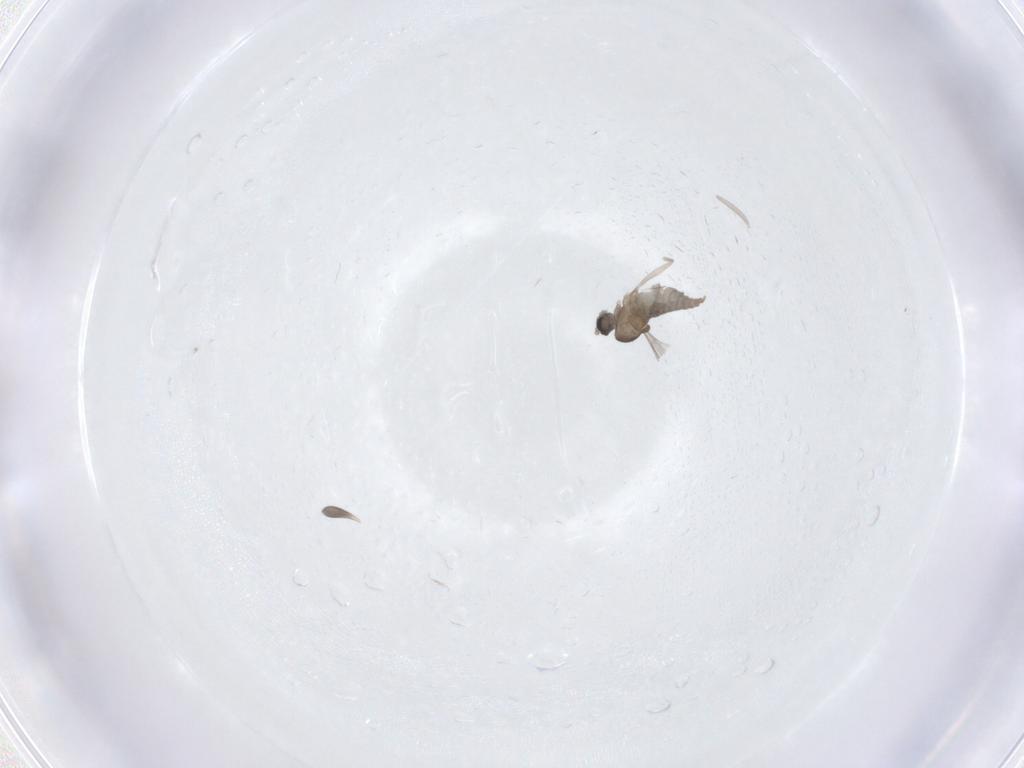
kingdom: Animalia
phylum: Arthropoda
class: Insecta
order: Diptera
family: Cecidomyiidae
